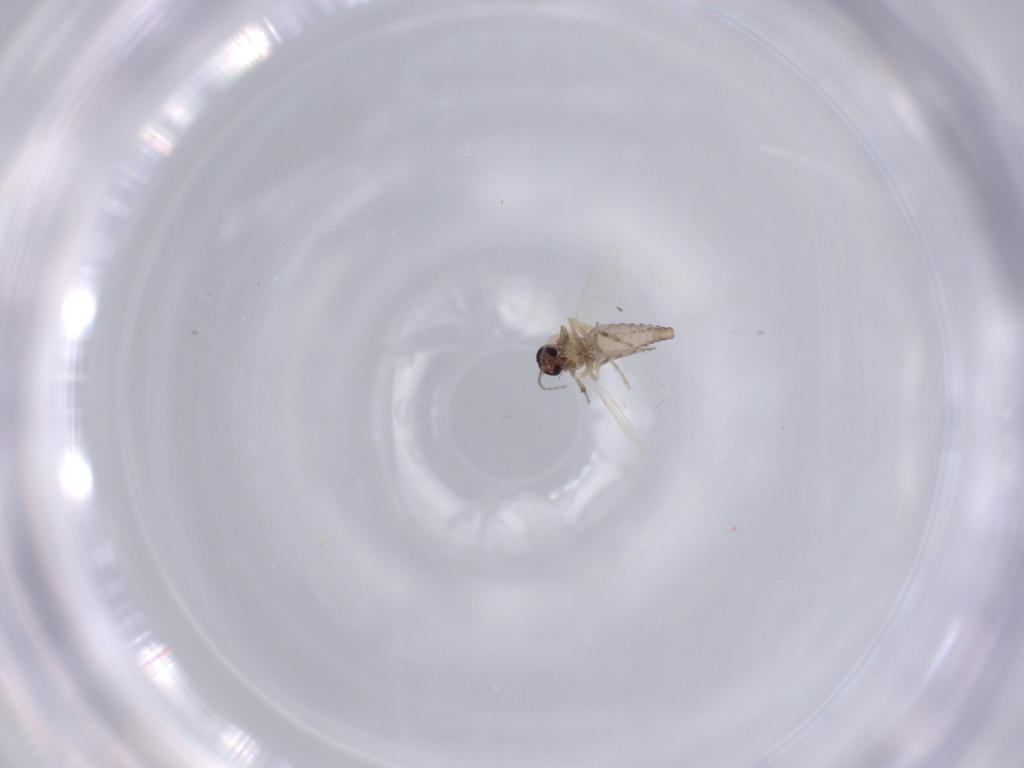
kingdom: Animalia
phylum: Arthropoda
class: Insecta
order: Diptera
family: Ceratopogonidae
